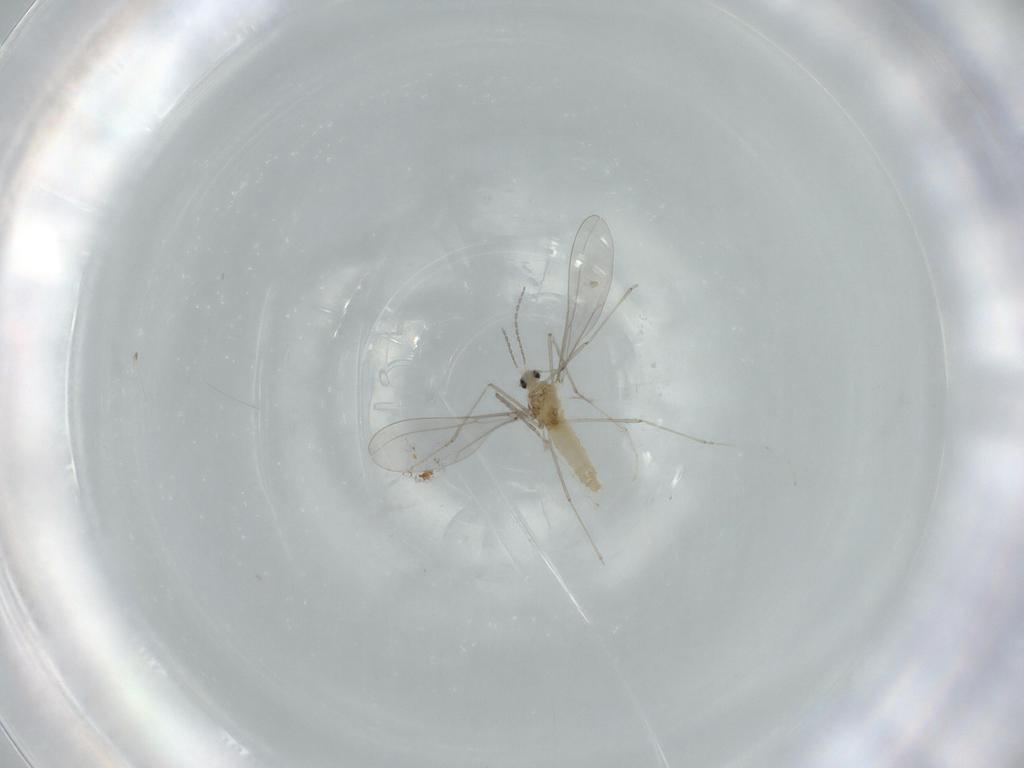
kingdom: Animalia
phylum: Arthropoda
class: Insecta
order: Diptera
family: Cecidomyiidae
